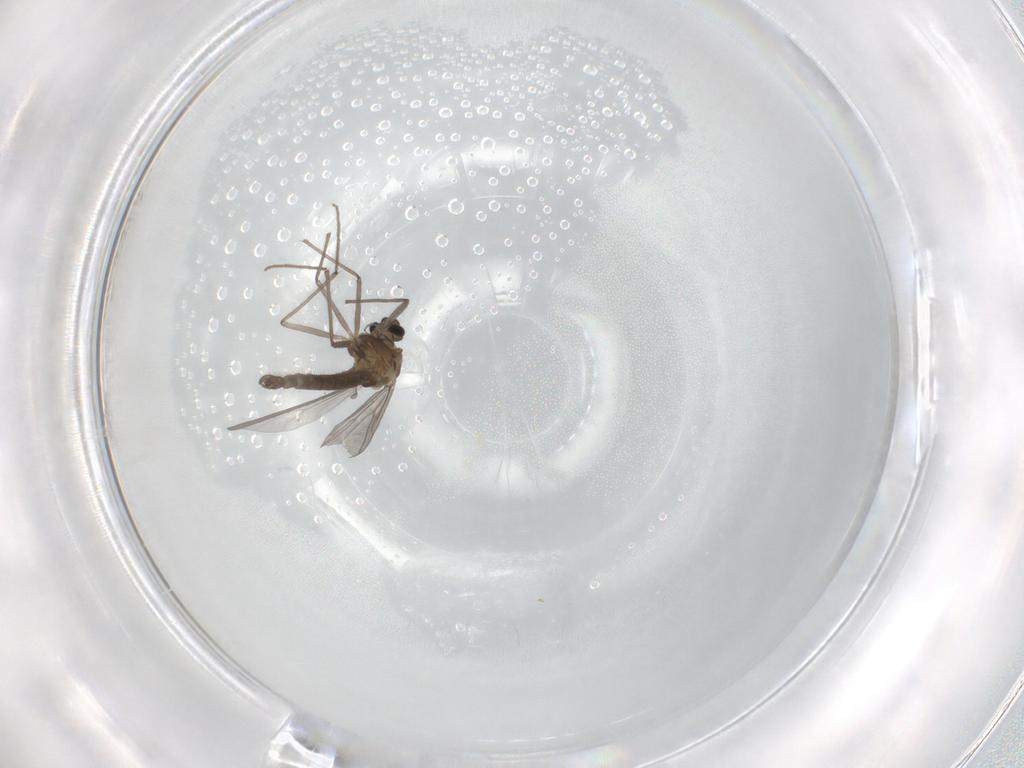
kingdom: Animalia
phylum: Arthropoda
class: Insecta
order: Diptera
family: Chironomidae
